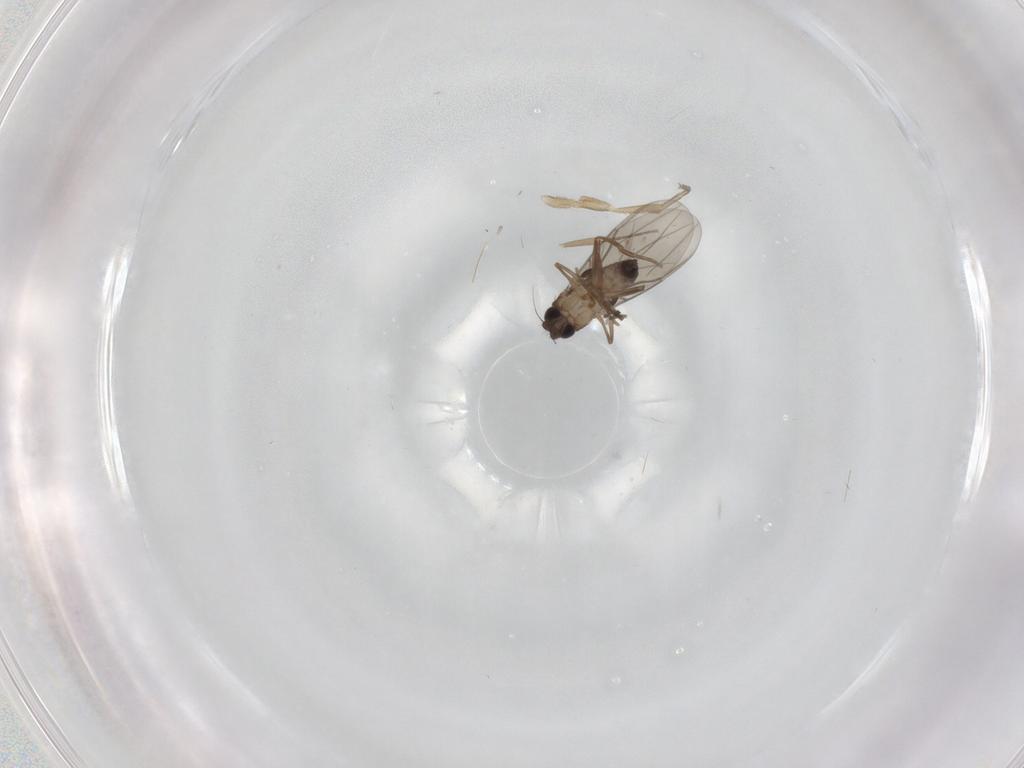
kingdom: Animalia
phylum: Arthropoda
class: Insecta
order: Diptera
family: Phoridae
